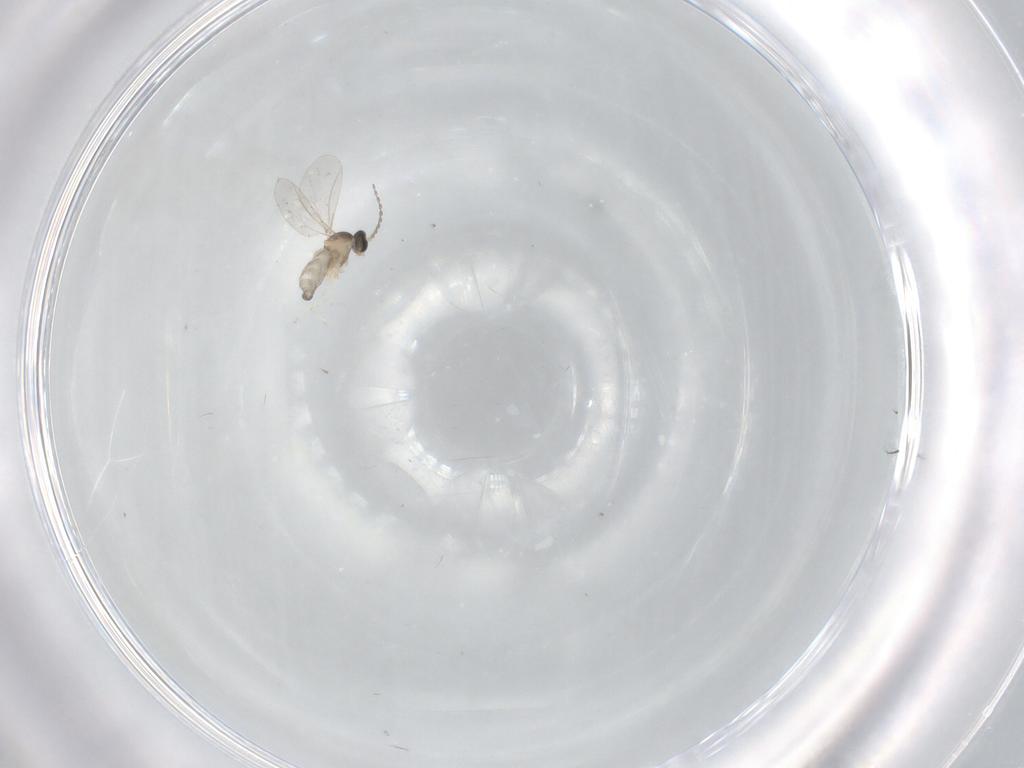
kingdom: Animalia
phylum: Arthropoda
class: Insecta
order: Diptera
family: Cecidomyiidae
